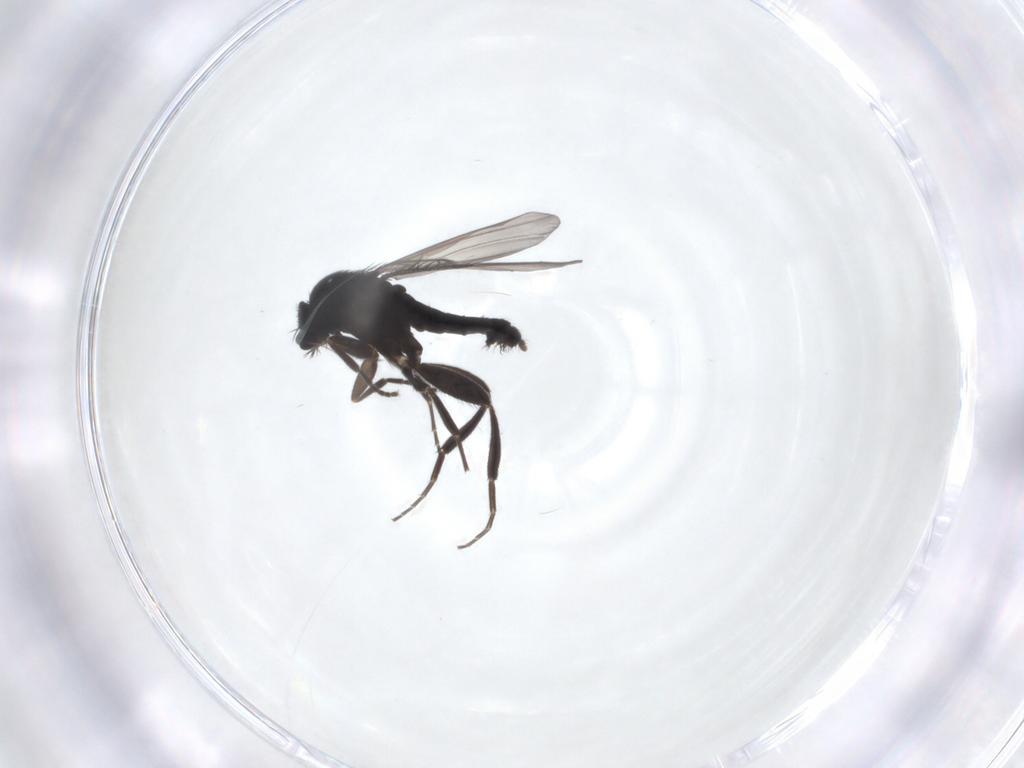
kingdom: Animalia
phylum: Arthropoda
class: Insecta
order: Diptera
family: Phoridae
